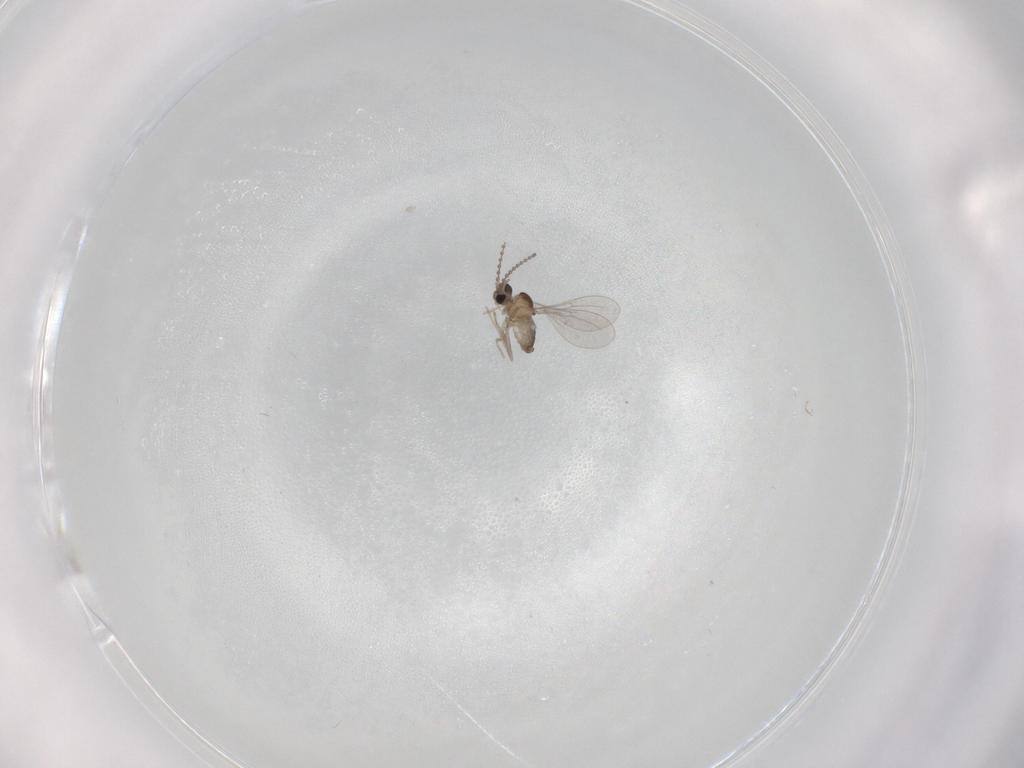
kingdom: Animalia
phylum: Arthropoda
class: Insecta
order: Diptera
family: Cecidomyiidae
